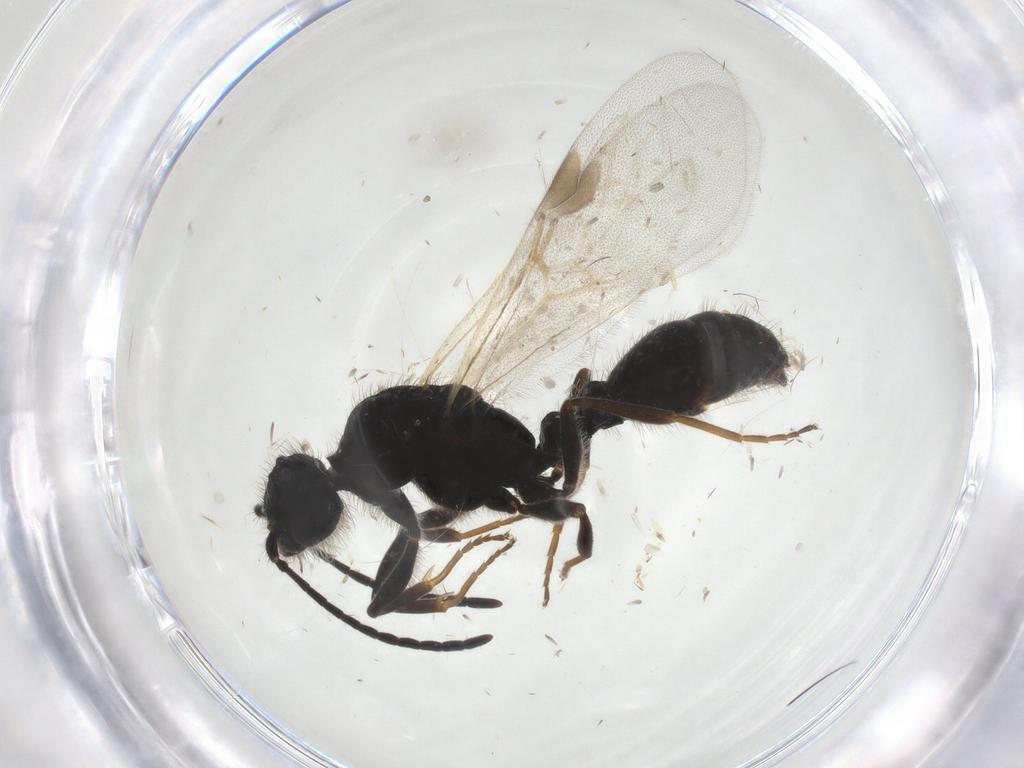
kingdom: Animalia
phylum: Arthropoda
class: Insecta
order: Hymenoptera
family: Formicidae
